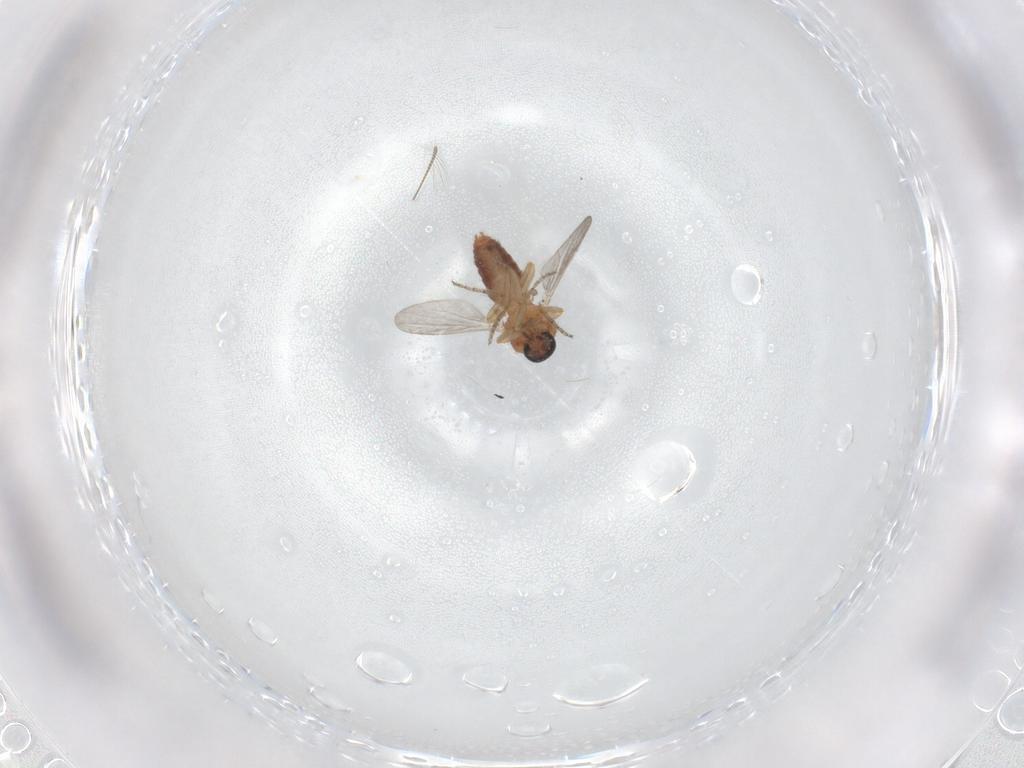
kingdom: Animalia
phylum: Arthropoda
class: Insecta
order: Diptera
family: Ceratopogonidae
